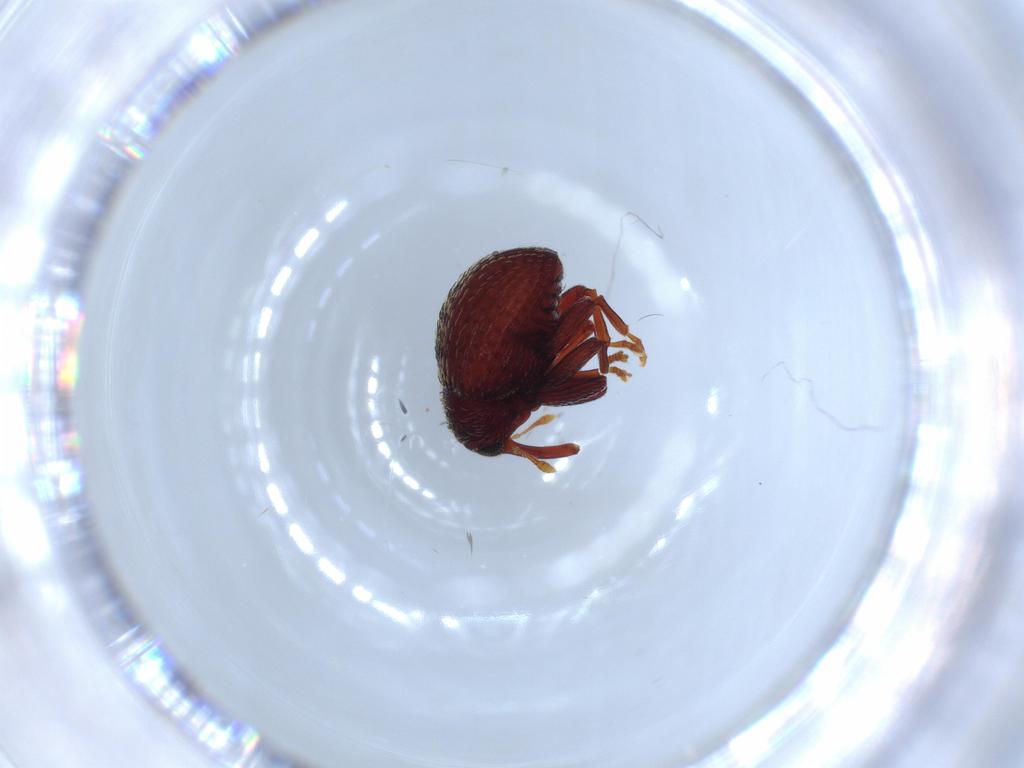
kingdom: Animalia
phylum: Arthropoda
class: Insecta
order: Coleoptera
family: Curculionidae
